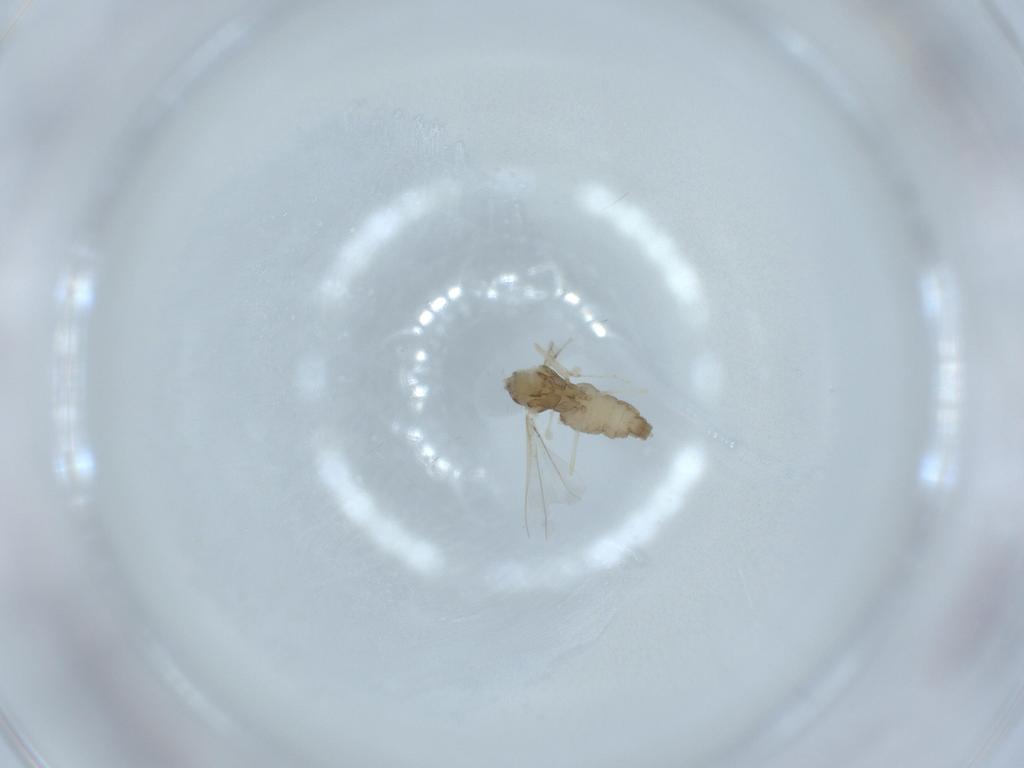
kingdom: Animalia
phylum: Arthropoda
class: Insecta
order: Diptera
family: Cecidomyiidae
